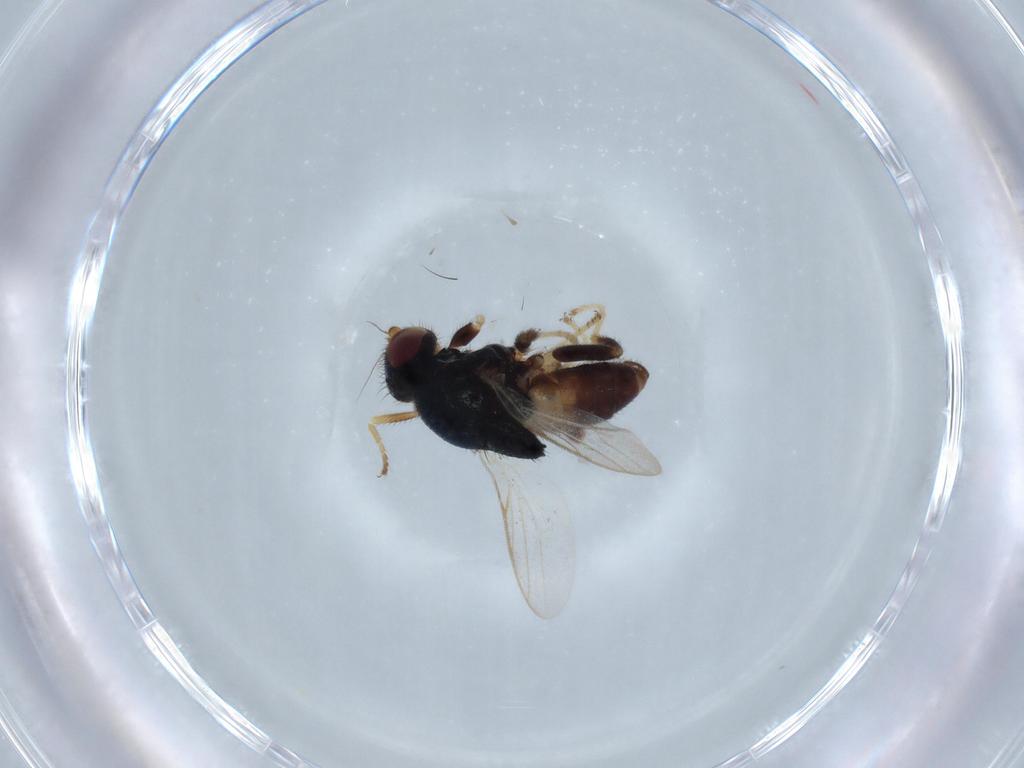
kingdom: Animalia
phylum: Arthropoda
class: Insecta
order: Diptera
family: Chloropidae
